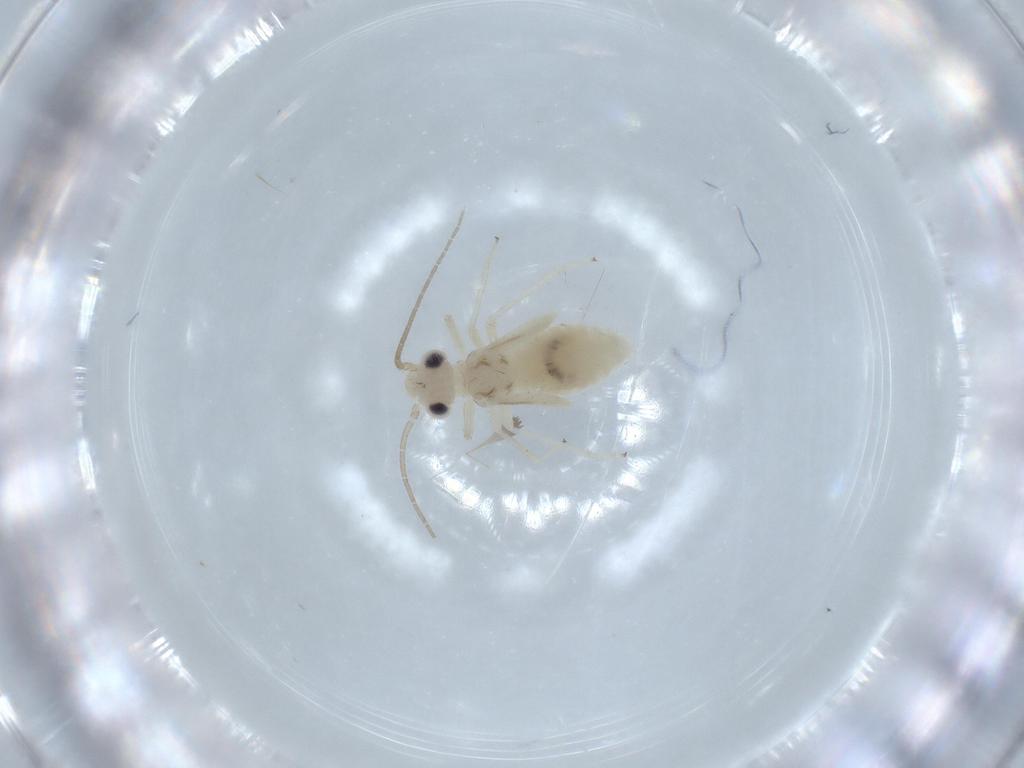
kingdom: Animalia
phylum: Arthropoda
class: Insecta
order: Psocodea
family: Caeciliusidae
